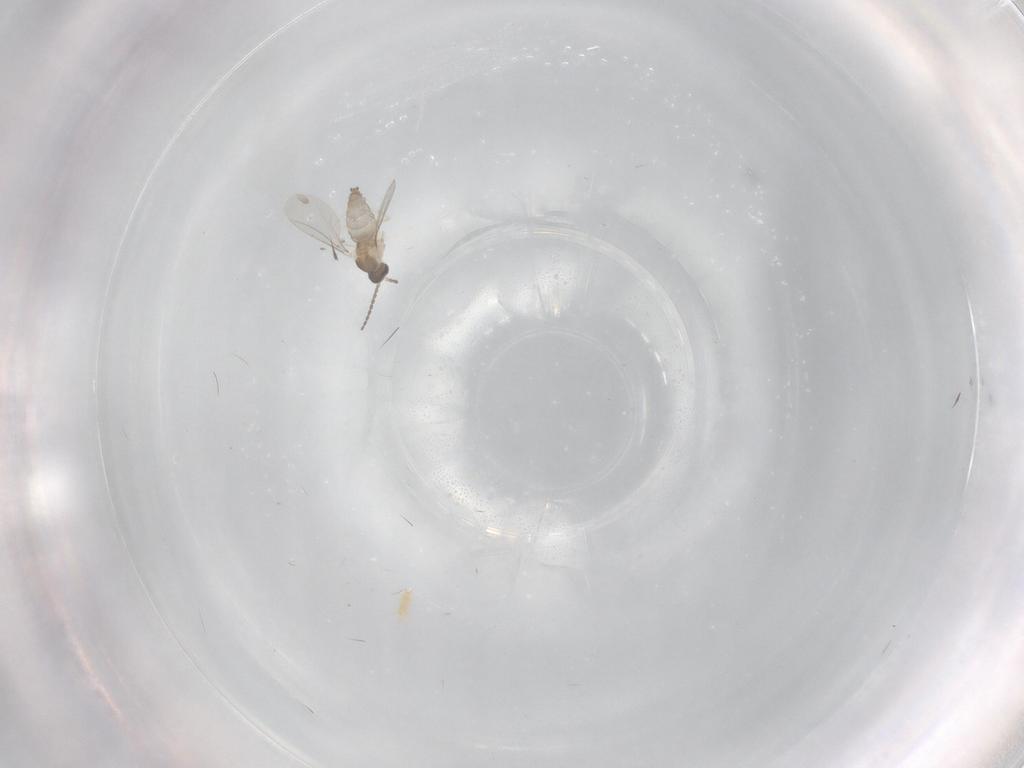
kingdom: Animalia
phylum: Arthropoda
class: Insecta
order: Diptera
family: Cecidomyiidae
